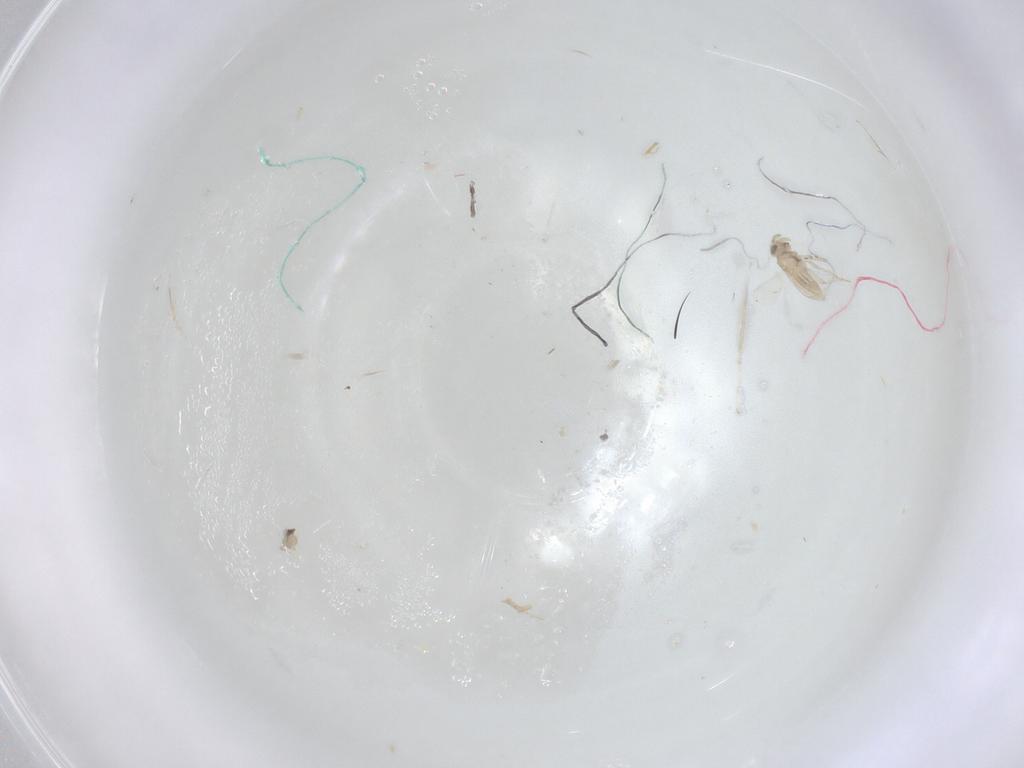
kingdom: Animalia
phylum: Arthropoda
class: Insecta
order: Hymenoptera
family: Aphelinidae
